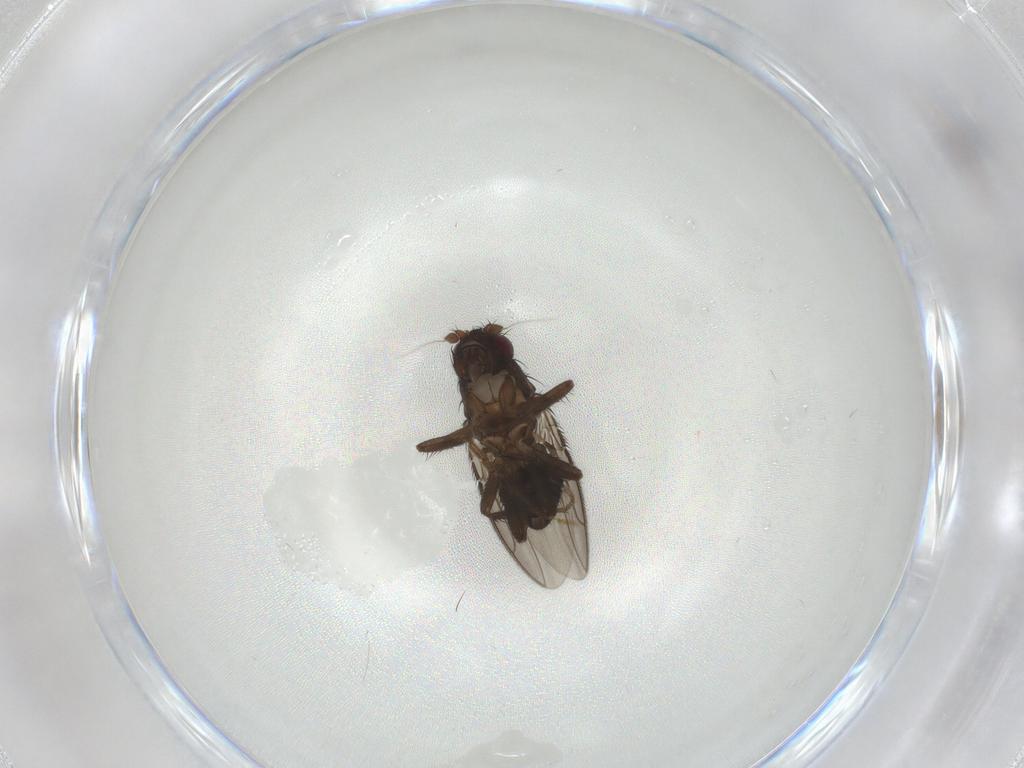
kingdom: Animalia
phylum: Arthropoda
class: Insecta
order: Diptera
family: Sphaeroceridae
